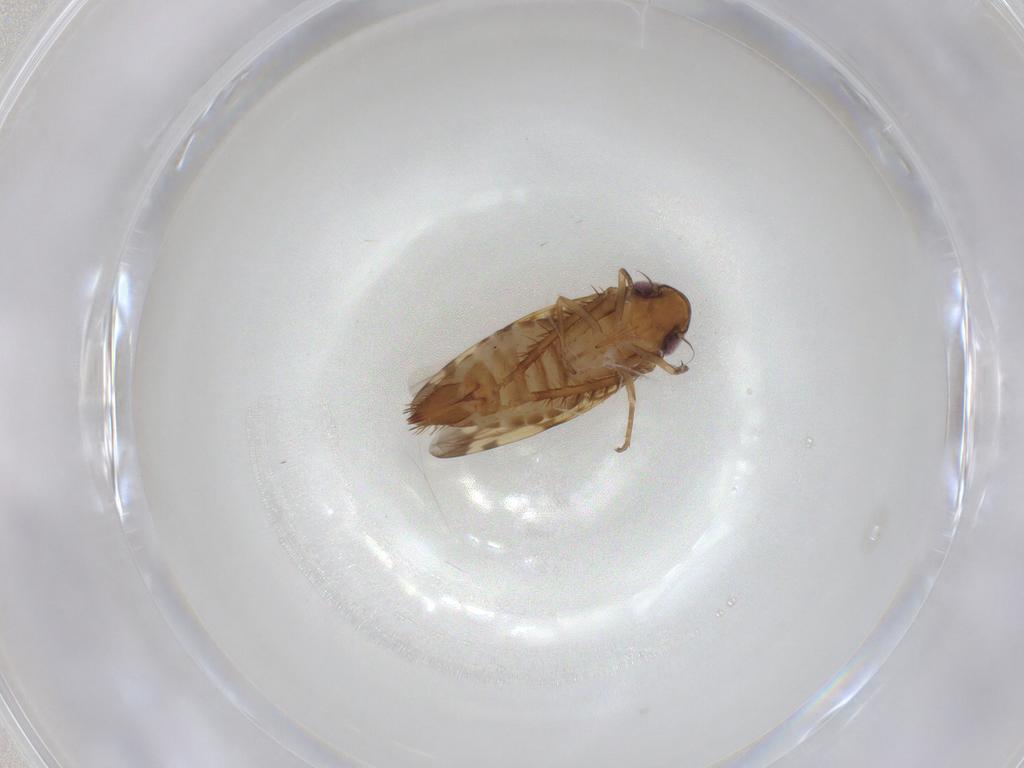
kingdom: Animalia
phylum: Arthropoda
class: Insecta
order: Hemiptera
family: Cicadellidae
